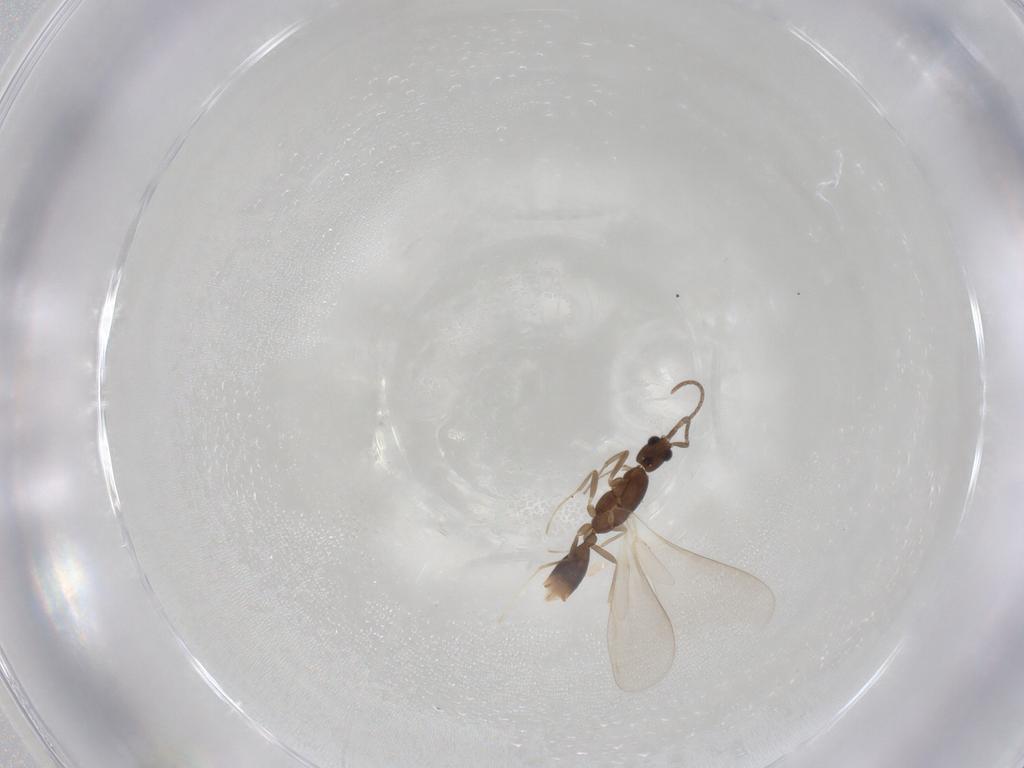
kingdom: Animalia
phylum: Arthropoda
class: Insecta
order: Hymenoptera
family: Formicidae
